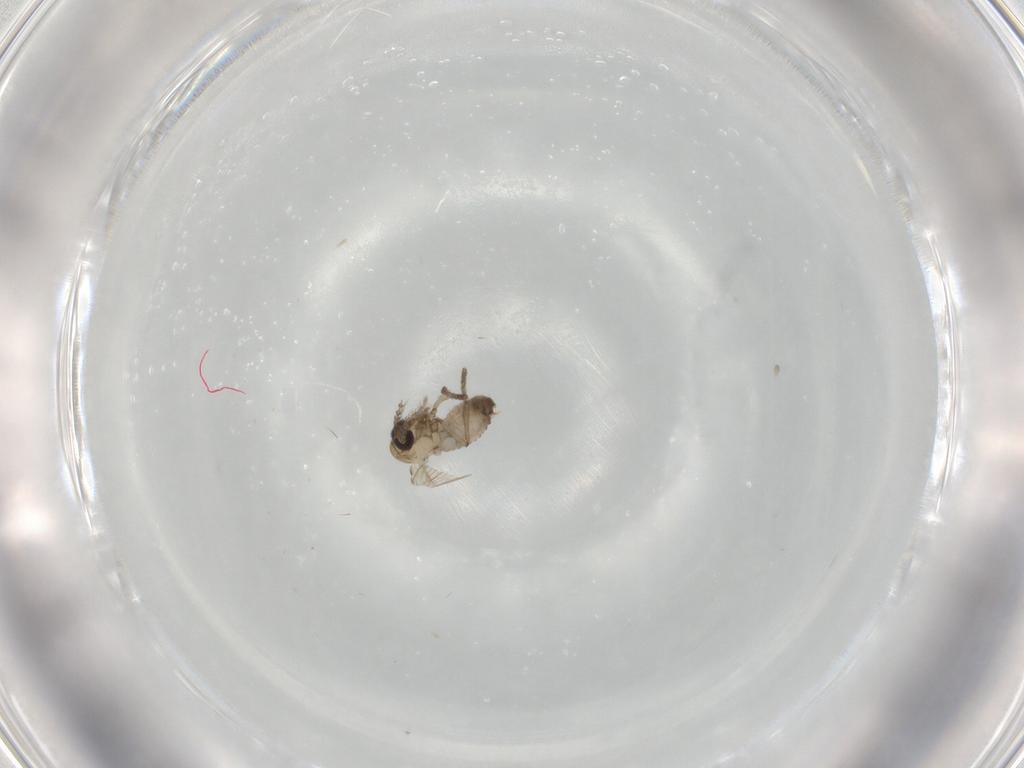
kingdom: Animalia
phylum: Arthropoda
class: Insecta
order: Diptera
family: Psychodidae
